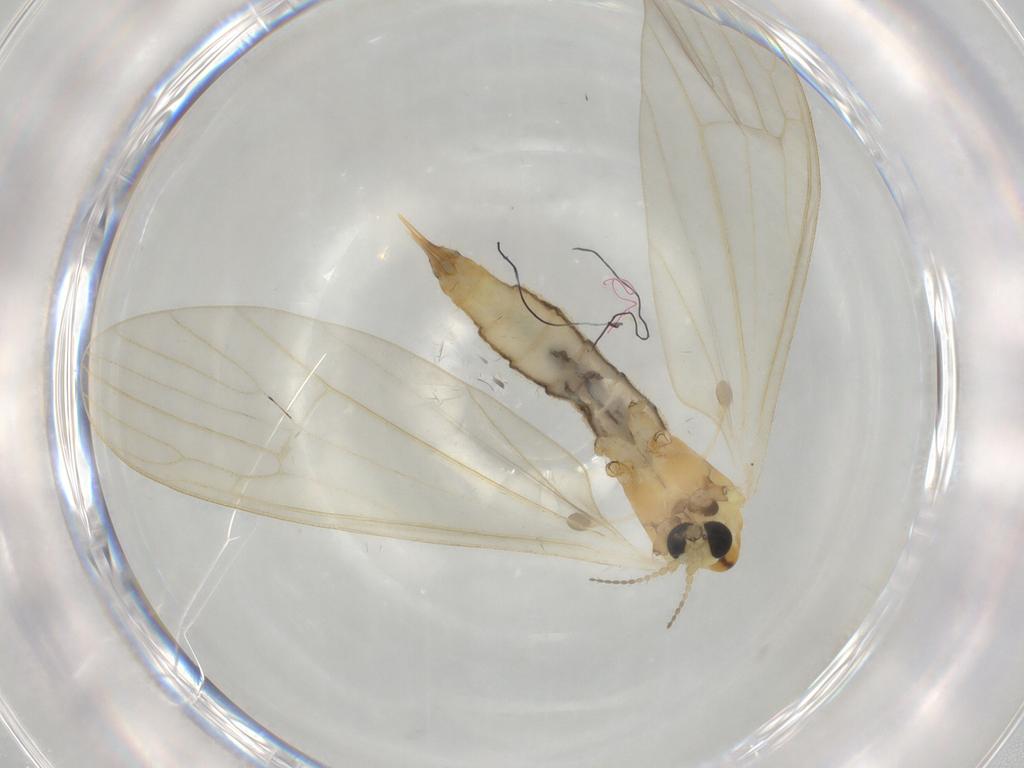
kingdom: Animalia
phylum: Arthropoda
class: Insecta
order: Diptera
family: Limoniidae
